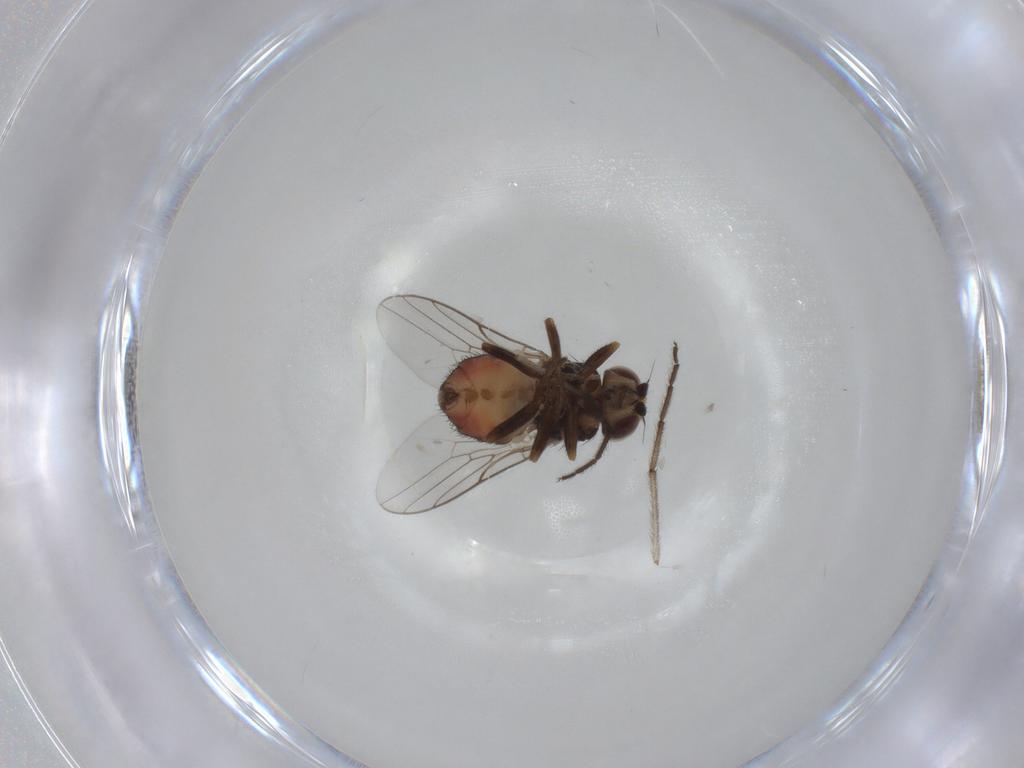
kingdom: Animalia
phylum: Arthropoda
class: Insecta
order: Diptera
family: Chloropidae
